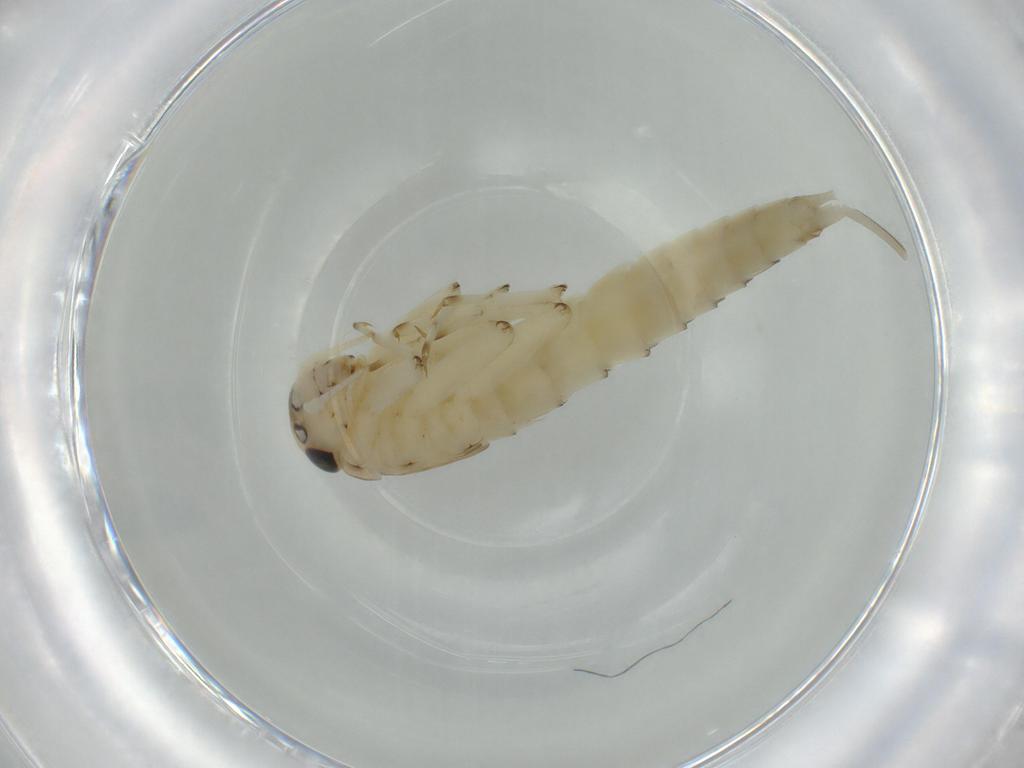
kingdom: Animalia
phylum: Arthropoda
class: Insecta
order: Ephemeroptera
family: Baetidae
